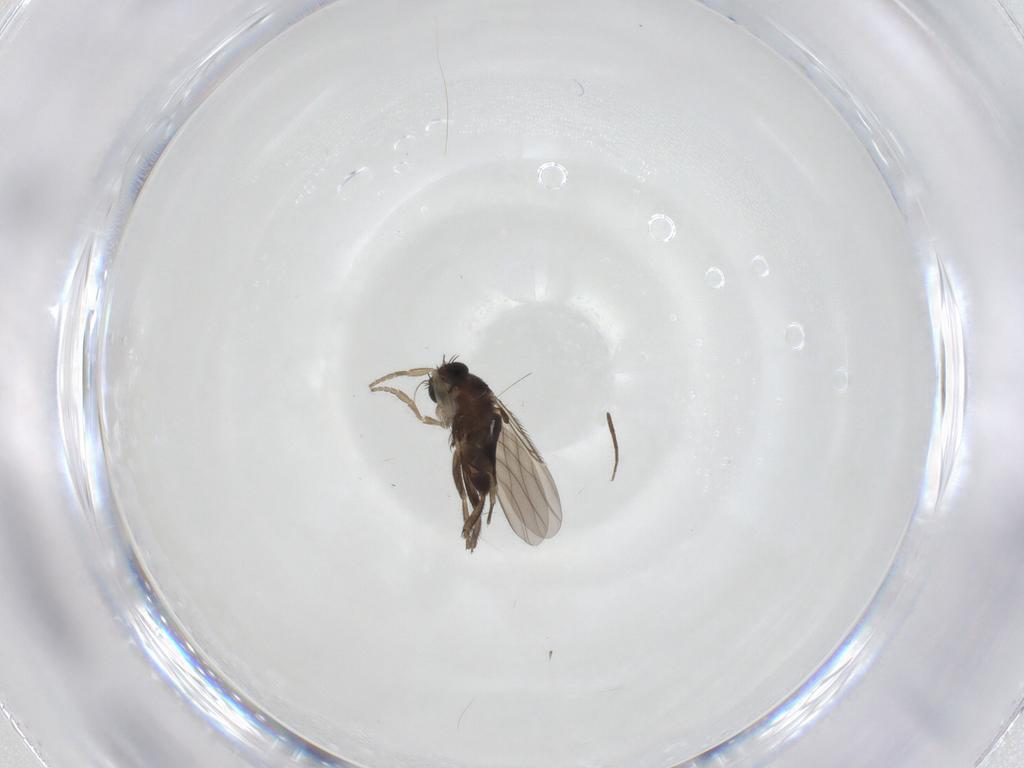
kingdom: Animalia
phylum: Arthropoda
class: Insecta
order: Diptera
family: Phoridae
